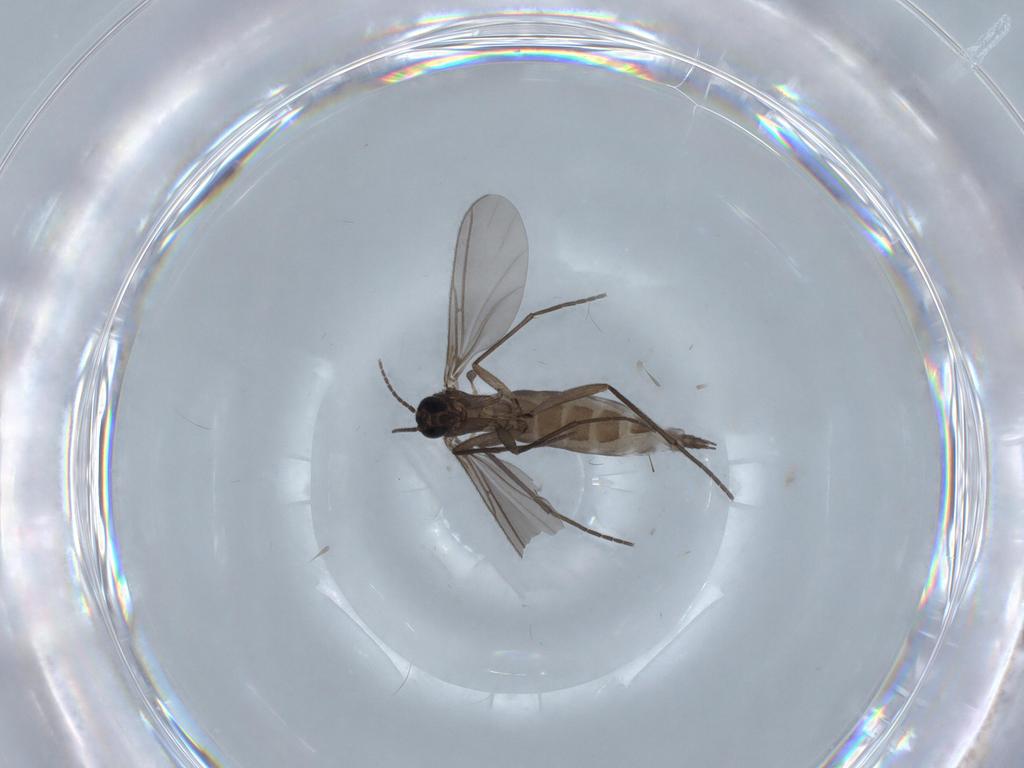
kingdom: Animalia
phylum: Arthropoda
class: Insecta
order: Diptera
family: Sciaridae
